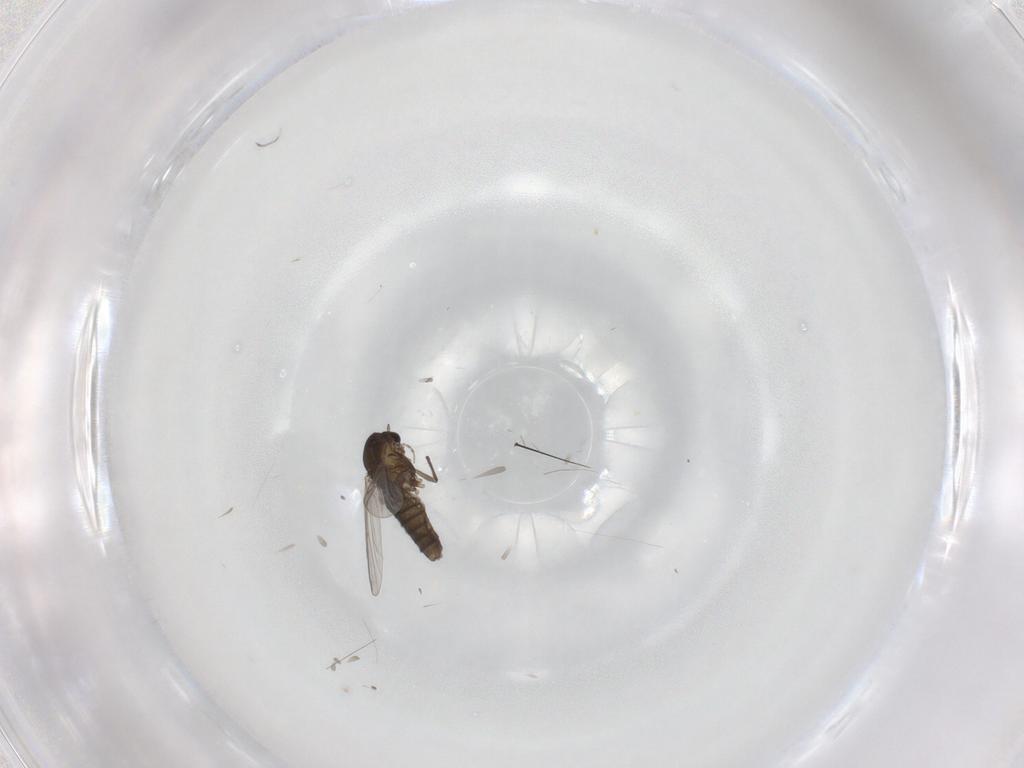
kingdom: Animalia
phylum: Arthropoda
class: Insecta
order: Diptera
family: Chironomidae
